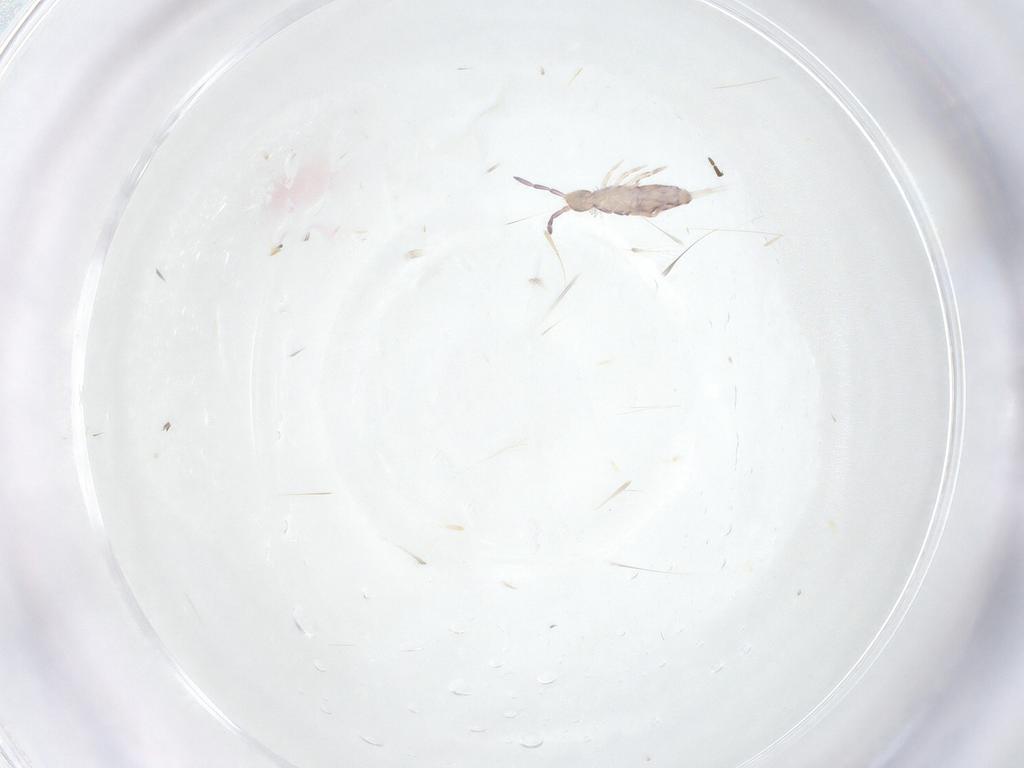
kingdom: Animalia
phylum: Arthropoda
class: Collembola
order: Entomobryomorpha
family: Entomobryidae
